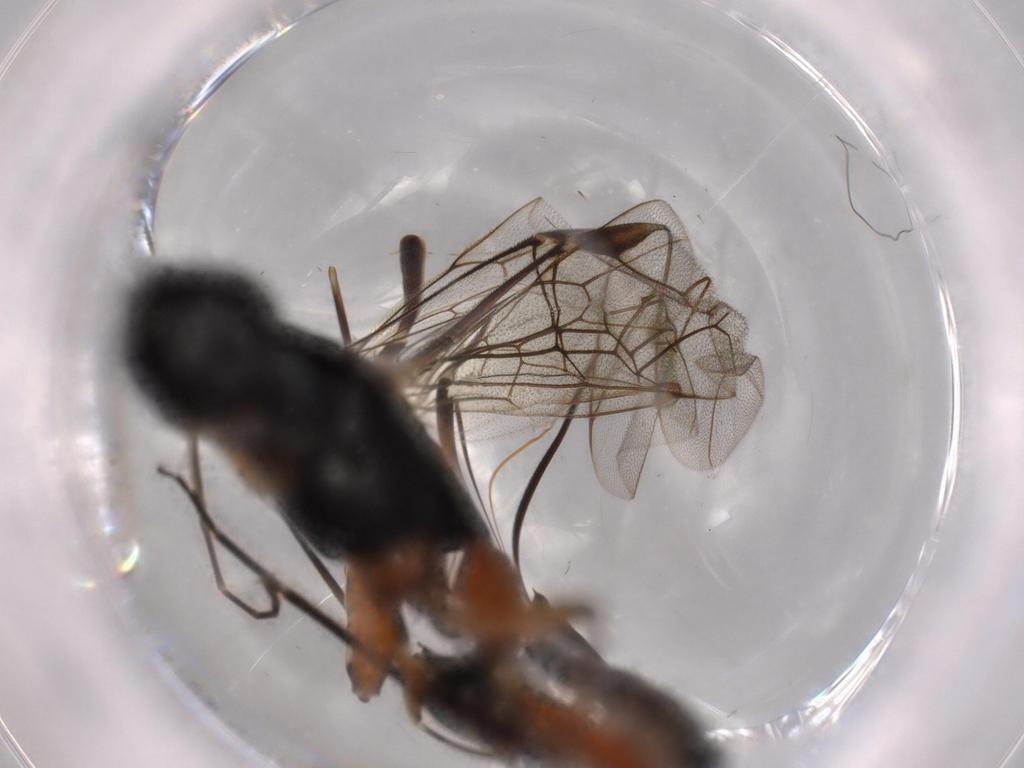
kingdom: Animalia
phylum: Arthropoda
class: Insecta
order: Hymenoptera
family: Ichneumonidae
